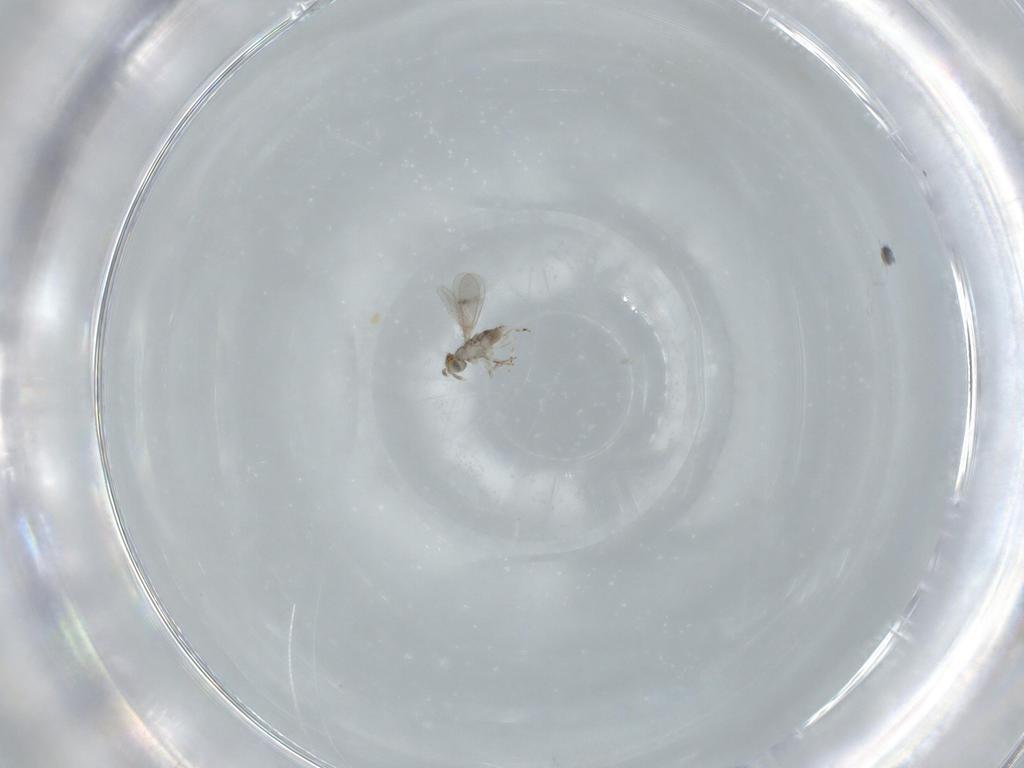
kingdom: Animalia
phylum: Arthropoda
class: Insecta
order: Hymenoptera
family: Aphelinidae
